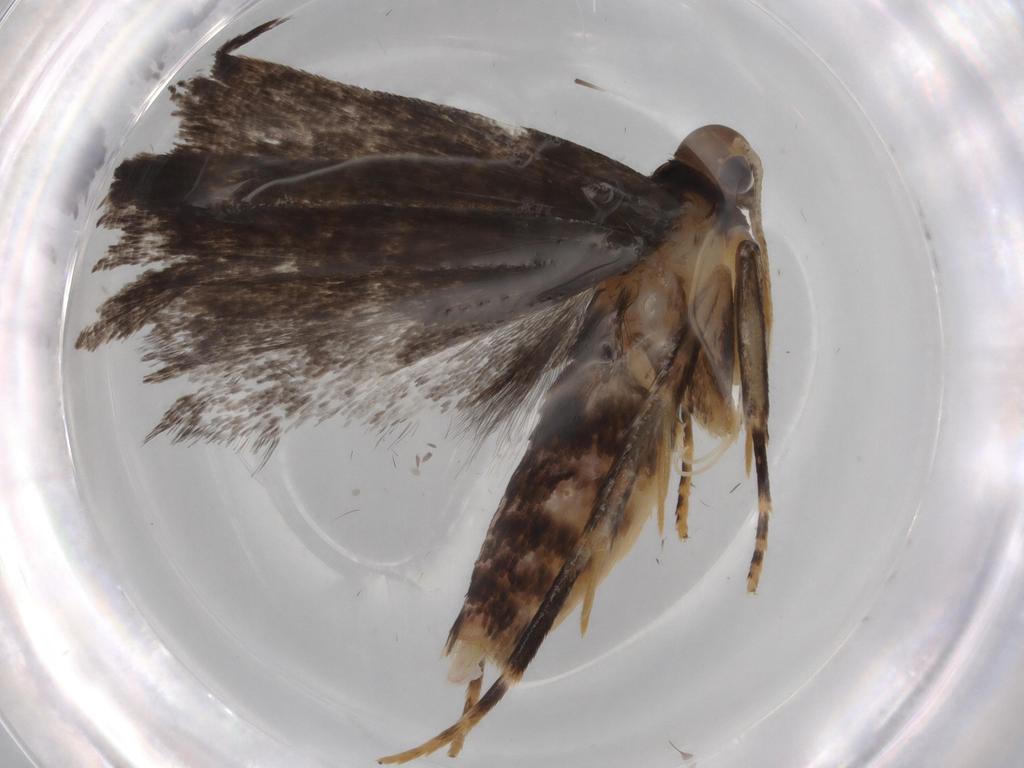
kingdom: Animalia
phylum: Arthropoda
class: Insecta
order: Lepidoptera
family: Gelechiidae
